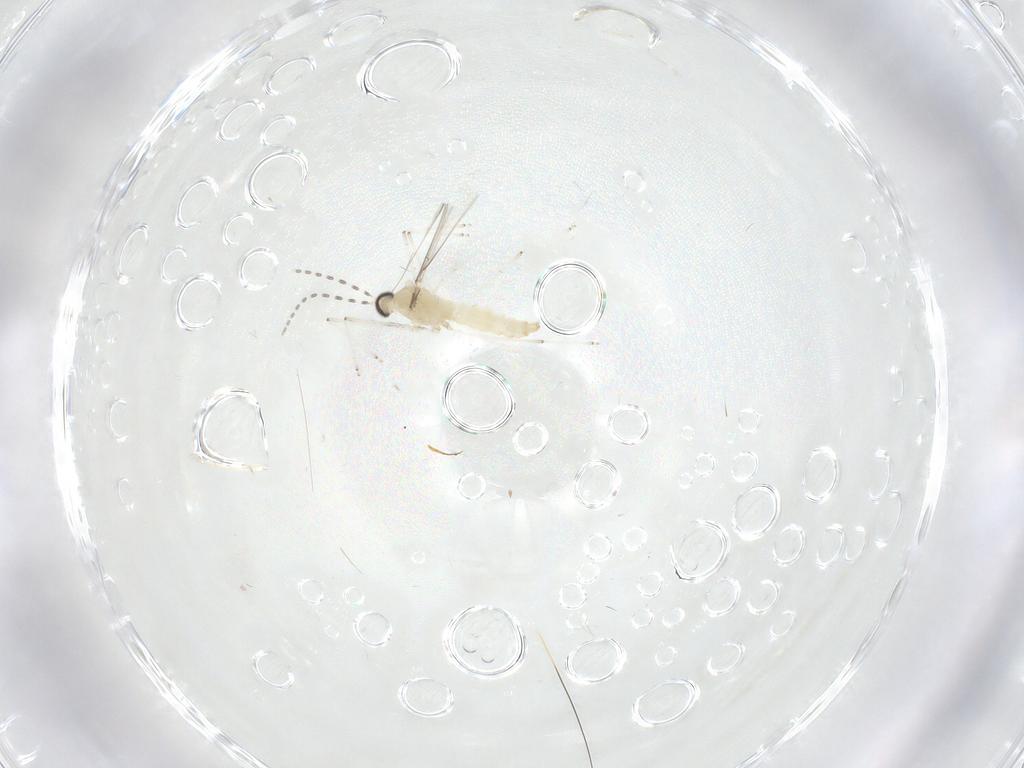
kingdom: Animalia
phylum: Arthropoda
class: Insecta
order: Diptera
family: Cecidomyiidae
